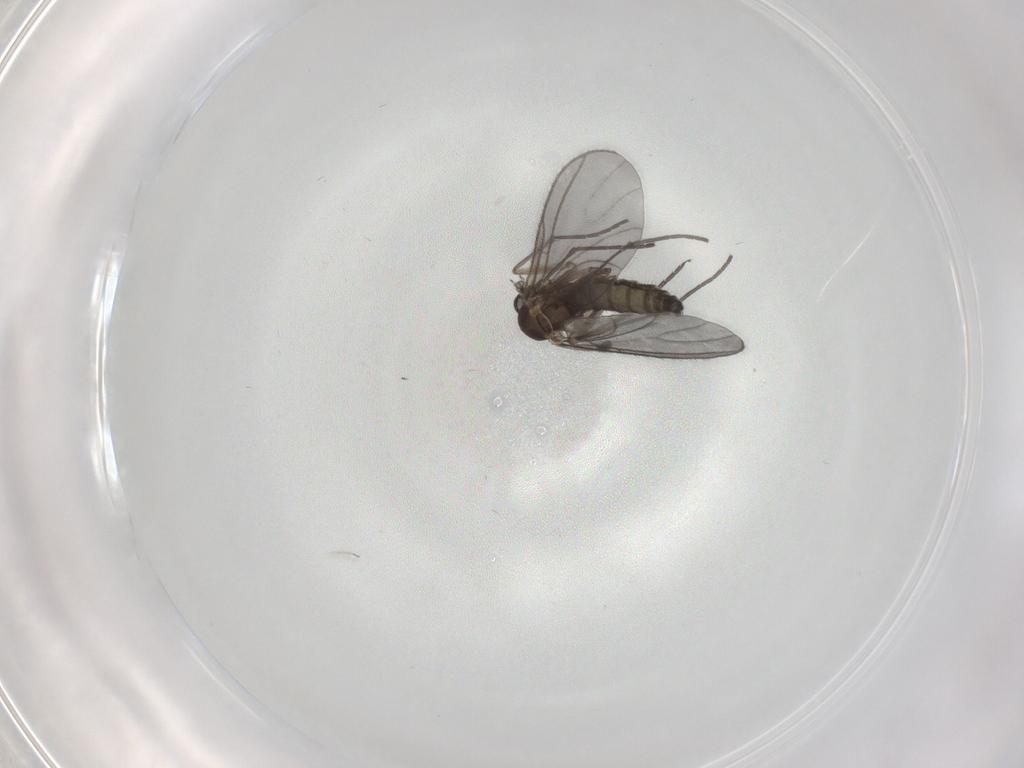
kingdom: Animalia
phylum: Arthropoda
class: Insecta
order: Diptera
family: Sciaridae
